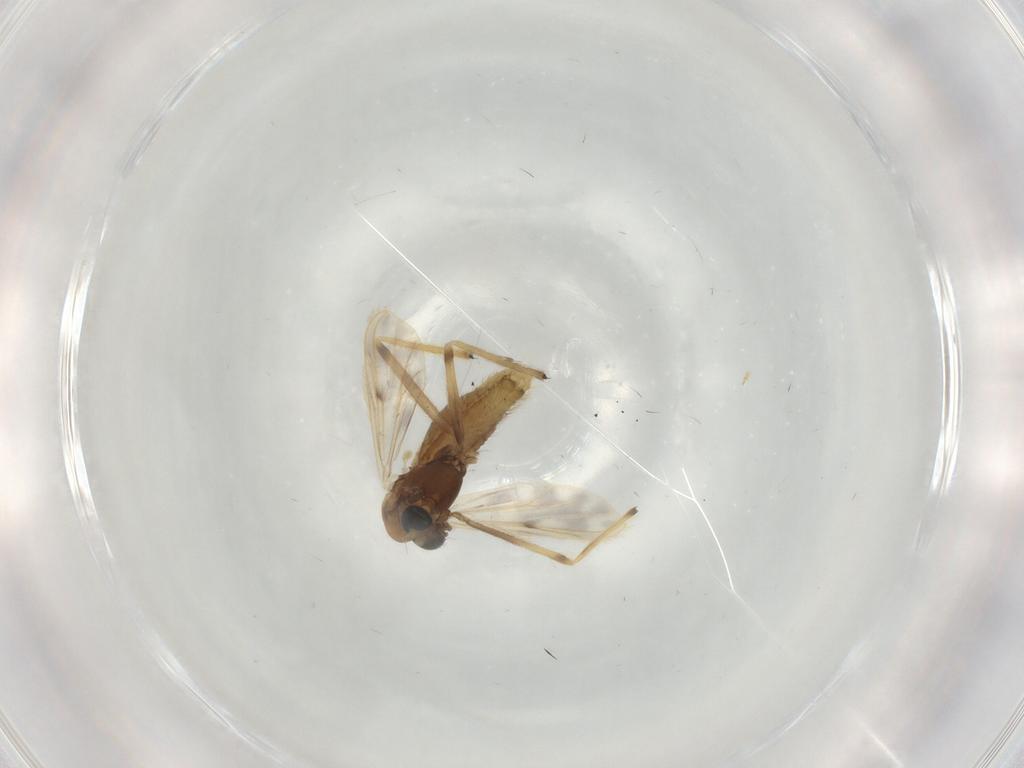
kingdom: Animalia
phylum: Arthropoda
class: Insecta
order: Diptera
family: Chironomidae
